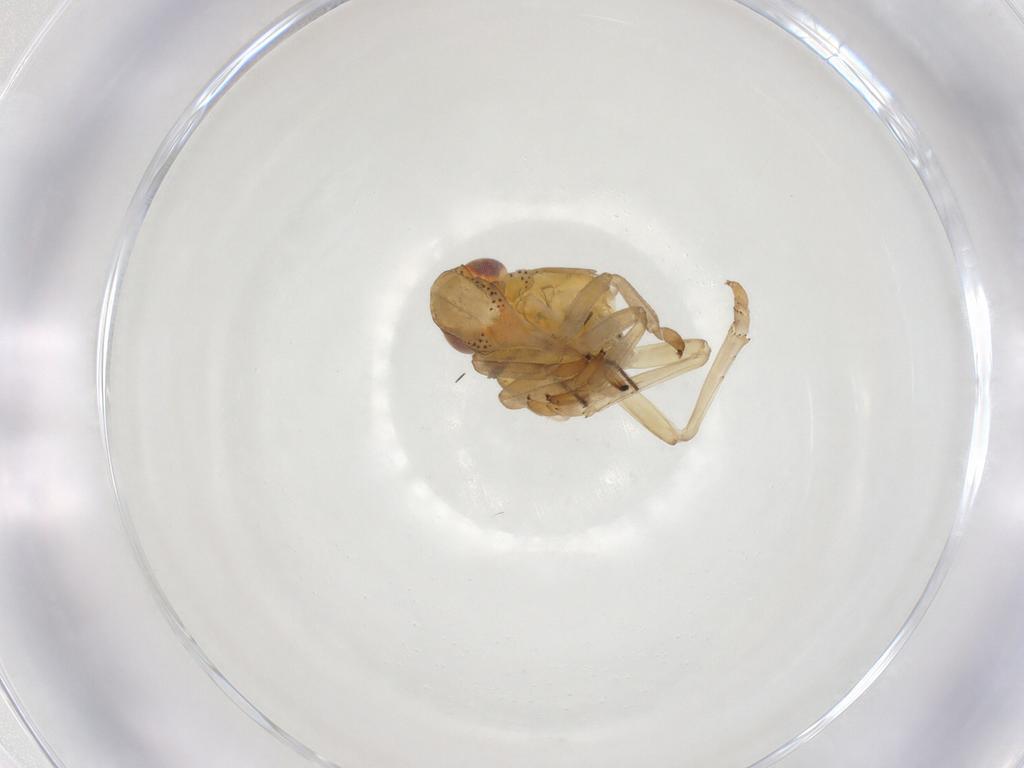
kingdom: Animalia
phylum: Arthropoda
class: Insecta
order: Hemiptera
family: Tropiduchidae
